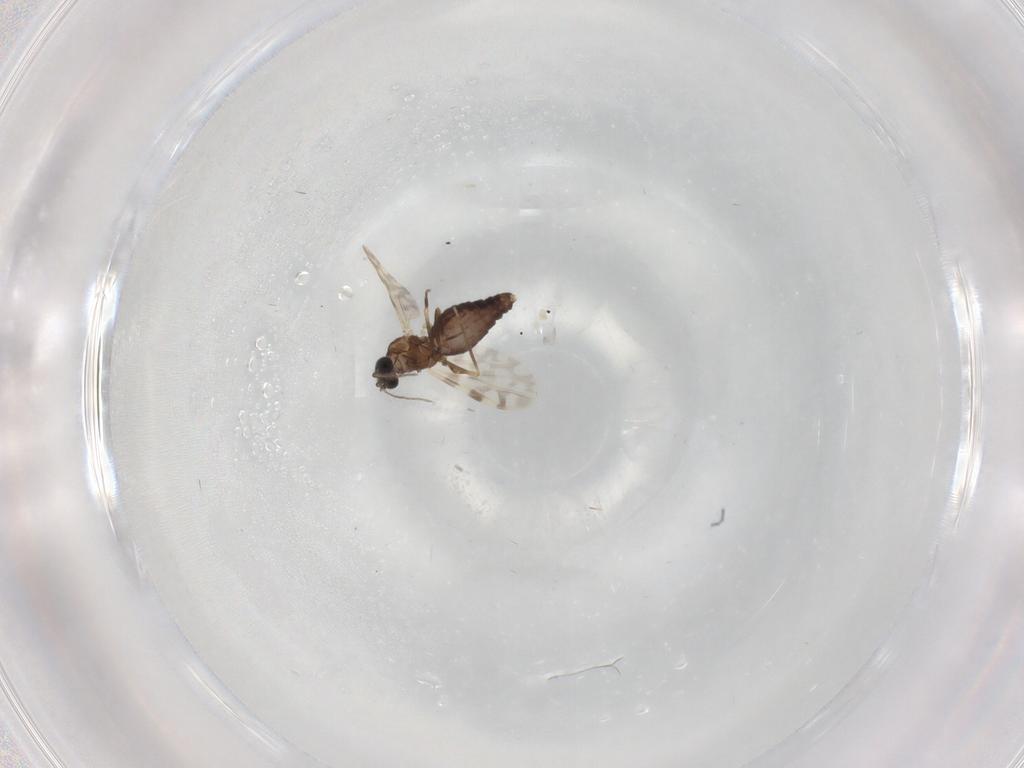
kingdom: Animalia
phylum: Arthropoda
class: Insecta
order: Diptera
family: Ceratopogonidae
